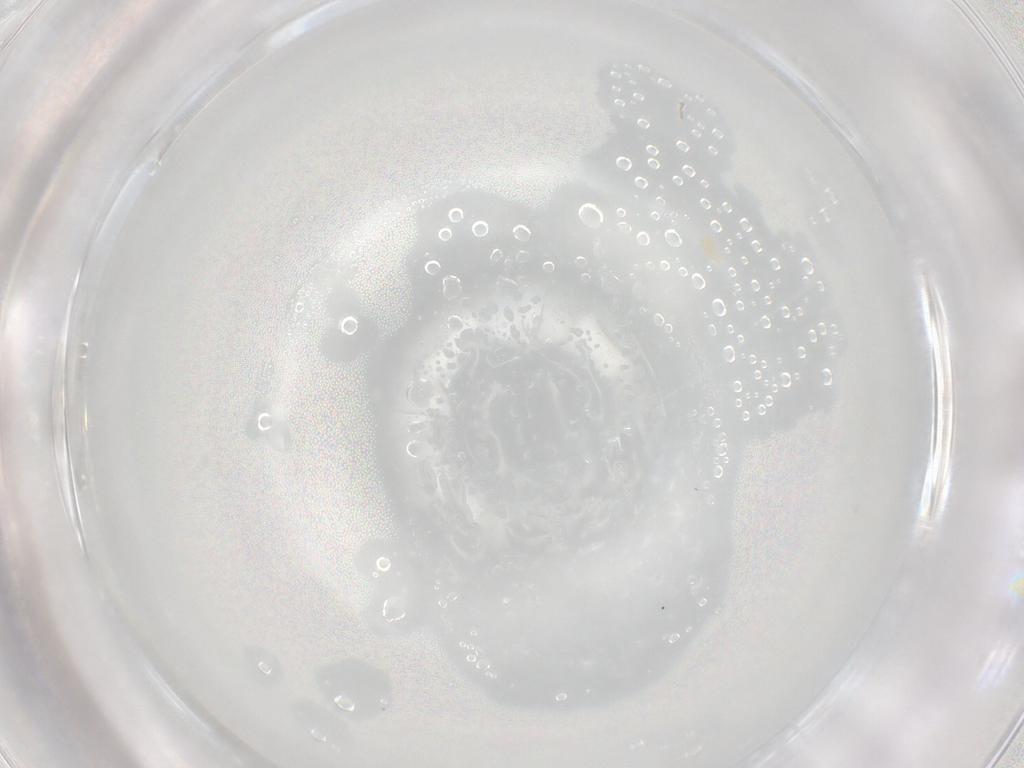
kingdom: Animalia
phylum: Arthropoda
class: Arachnida
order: Trombidiformes
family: Eupodidae
